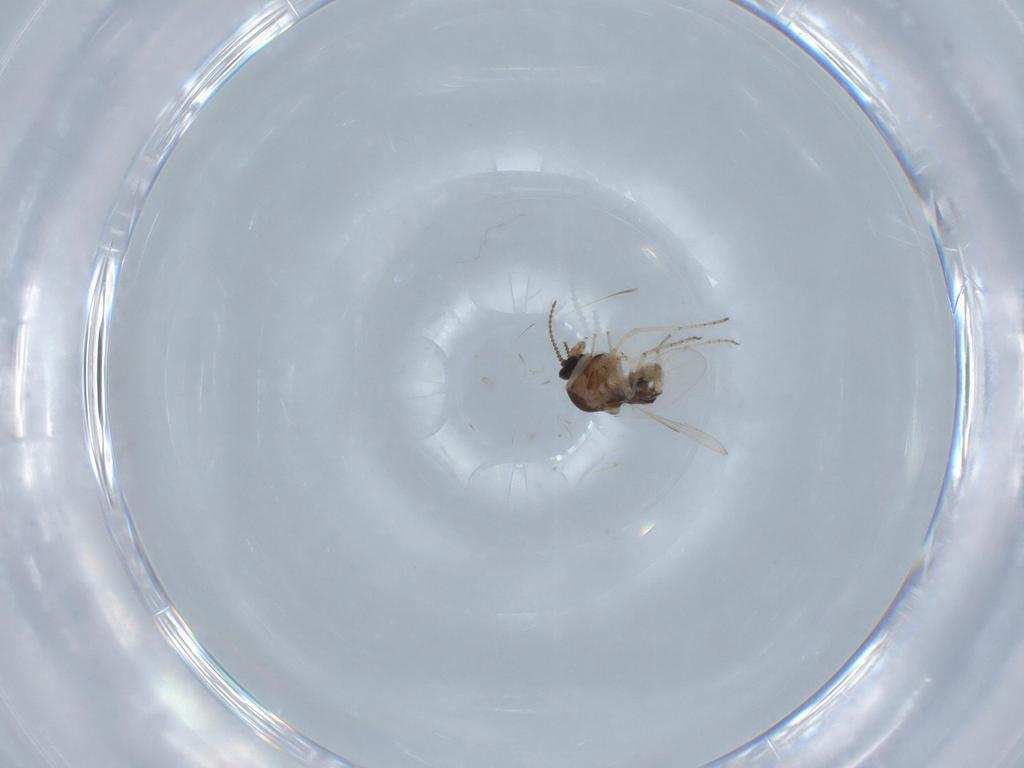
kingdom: Animalia
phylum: Arthropoda
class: Insecta
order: Diptera
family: Ceratopogonidae
